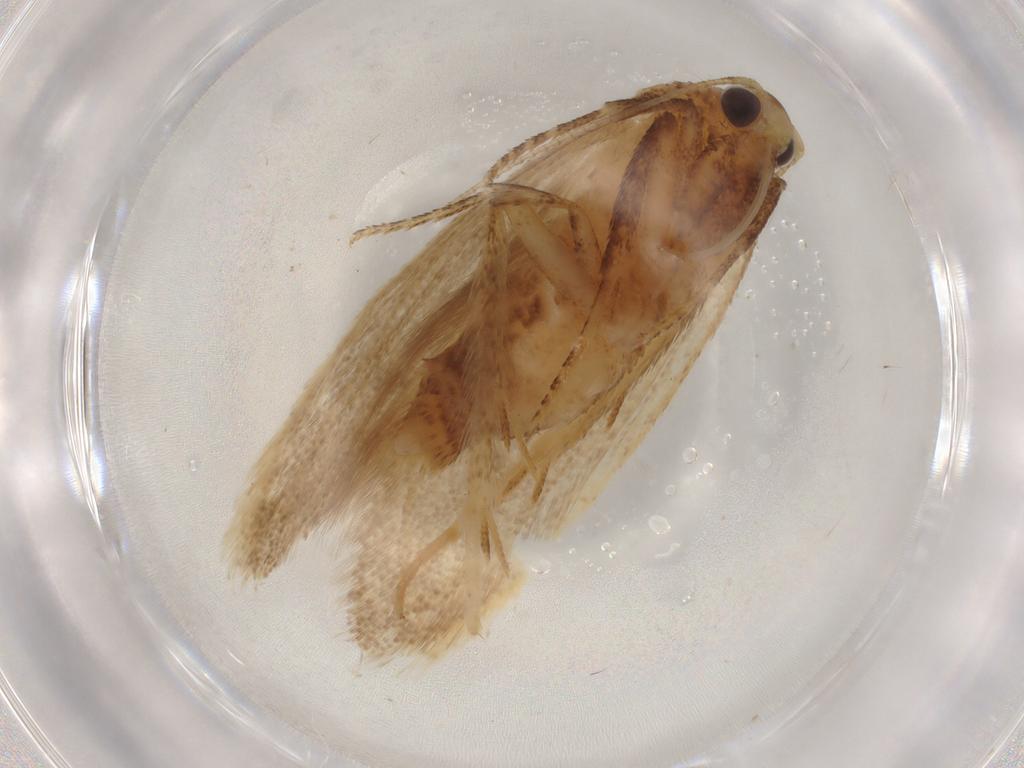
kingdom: Animalia
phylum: Arthropoda
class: Insecta
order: Lepidoptera
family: Autostichidae
